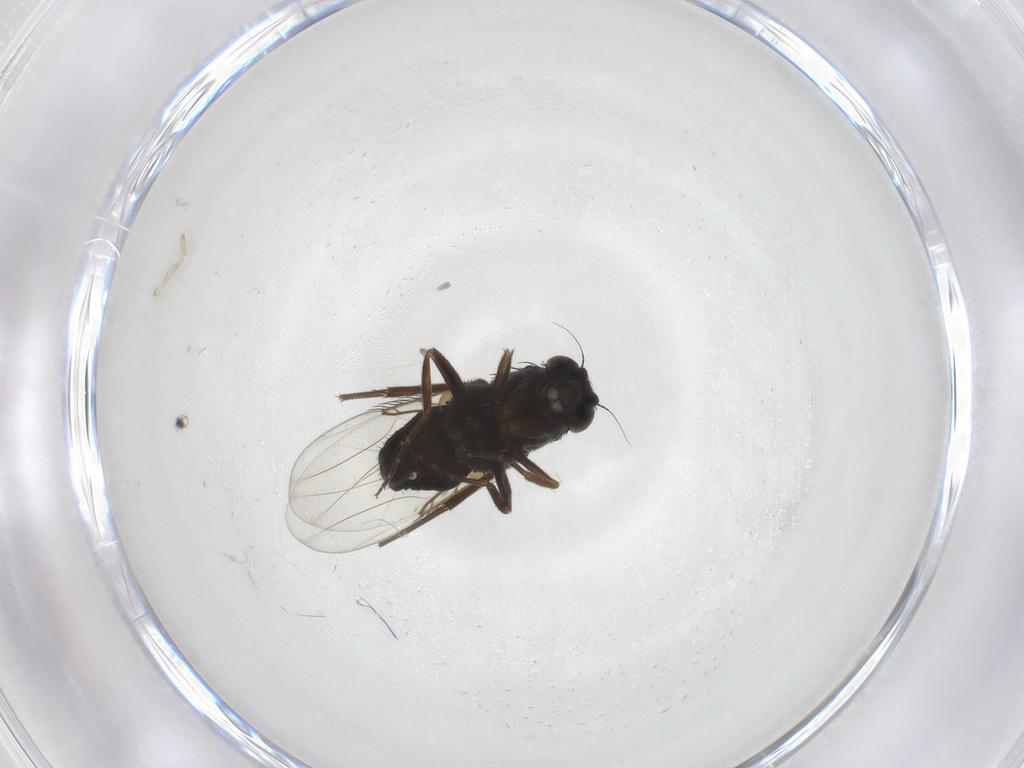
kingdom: Animalia
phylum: Arthropoda
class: Insecta
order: Diptera
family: Phoridae
